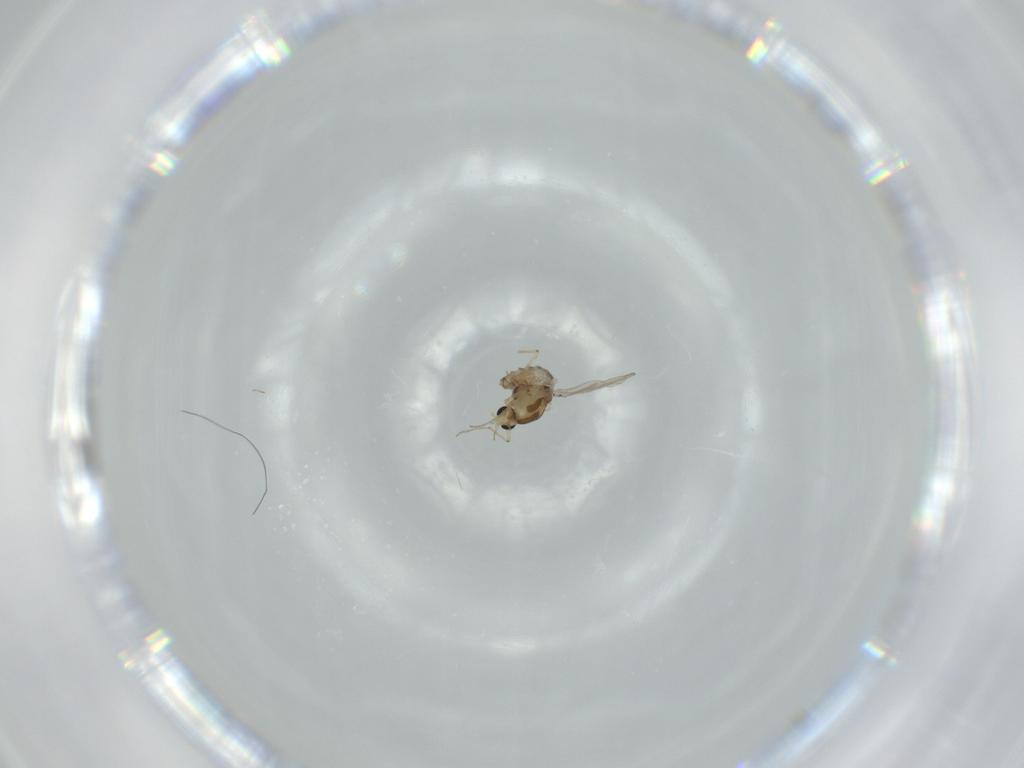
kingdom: Animalia
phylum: Arthropoda
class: Insecta
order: Diptera
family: Chironomidae
